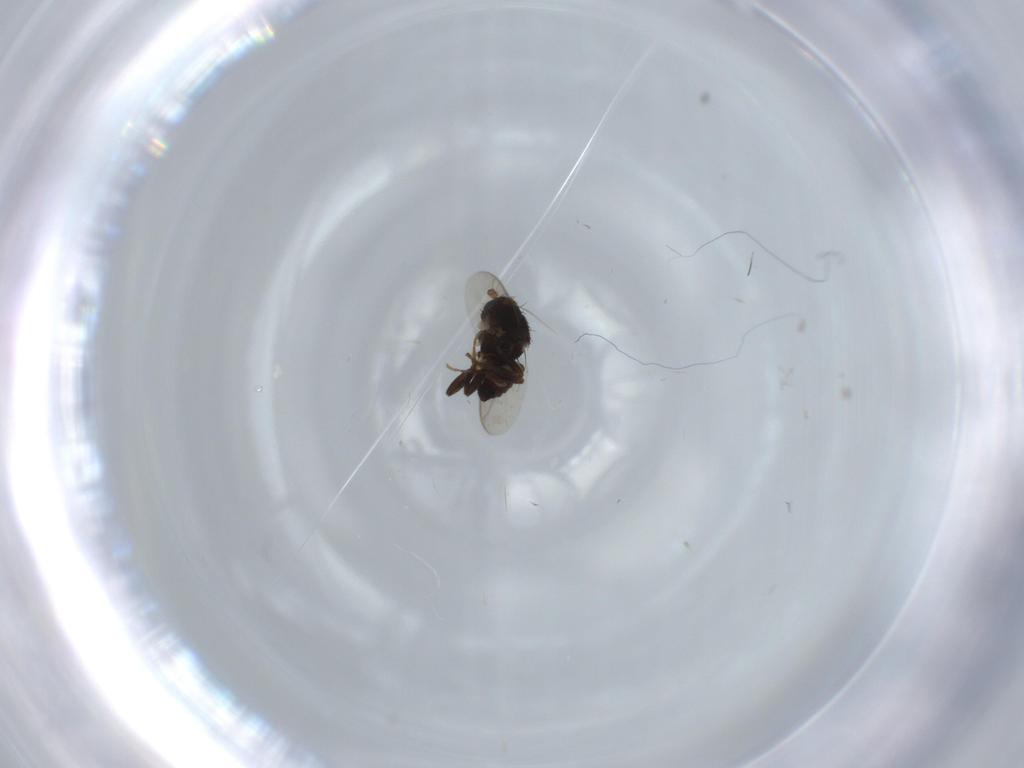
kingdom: Animalia
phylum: Arthropoda
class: Insecta
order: Diptera
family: Sphaeroceridae
